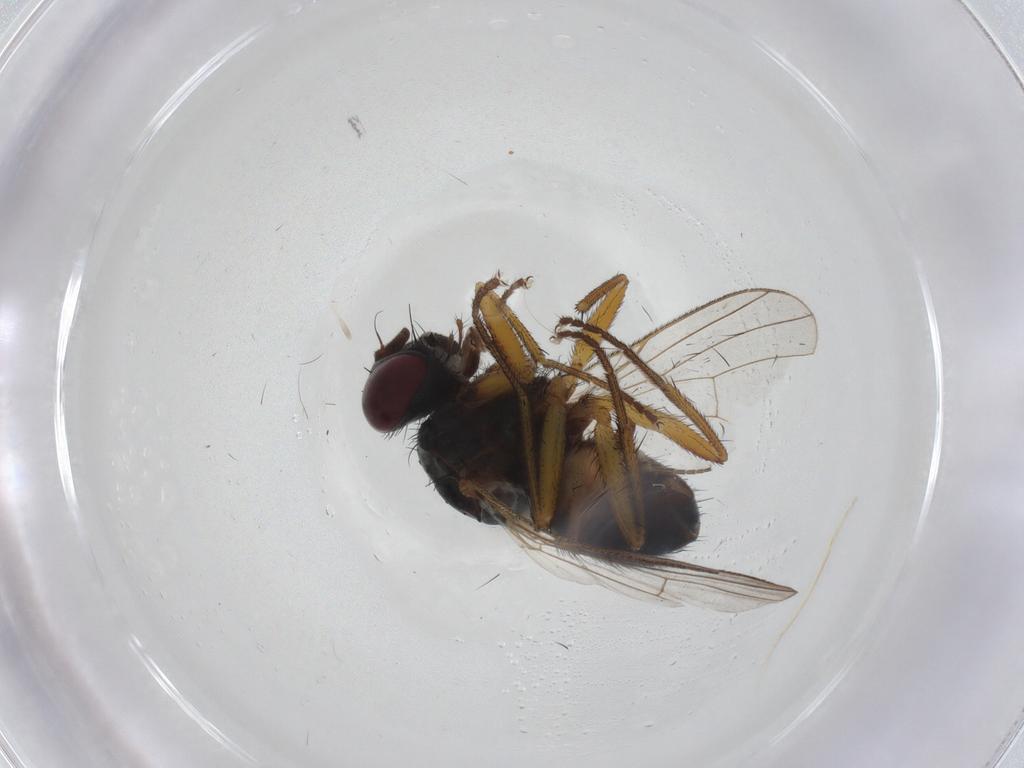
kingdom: Animalia
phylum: Arthropoda
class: Insecta
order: Diptera
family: Muscidae
